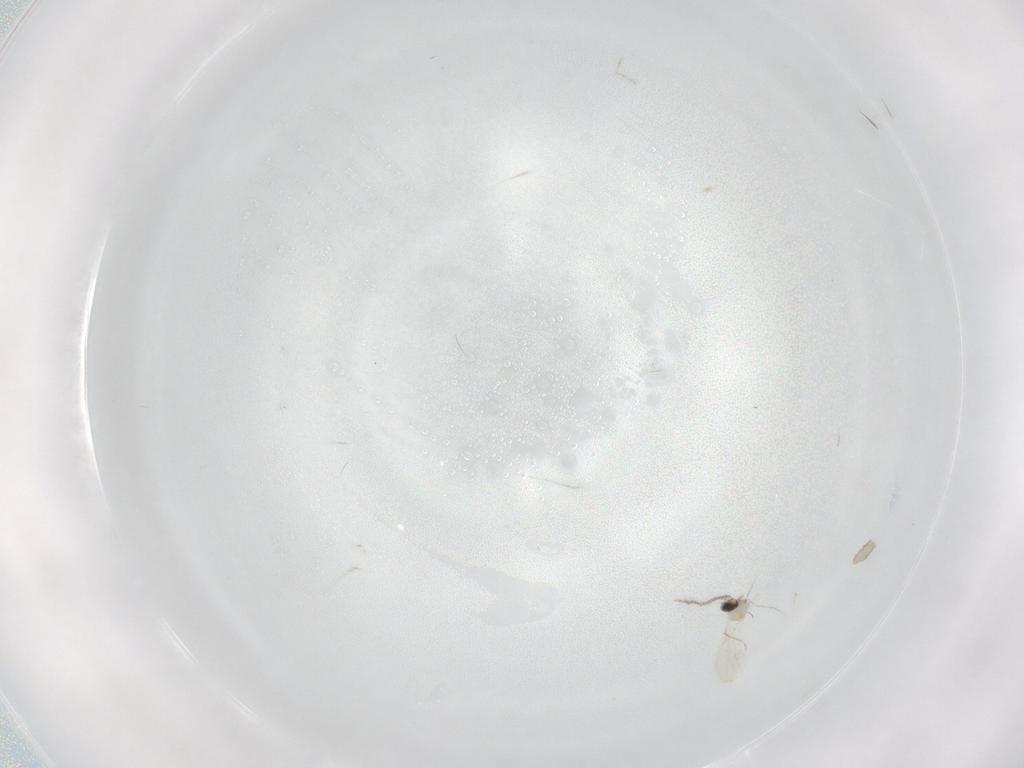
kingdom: Animalia
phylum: Arthropoda
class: Insecta
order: Diptera
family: Cecidomyiidae
